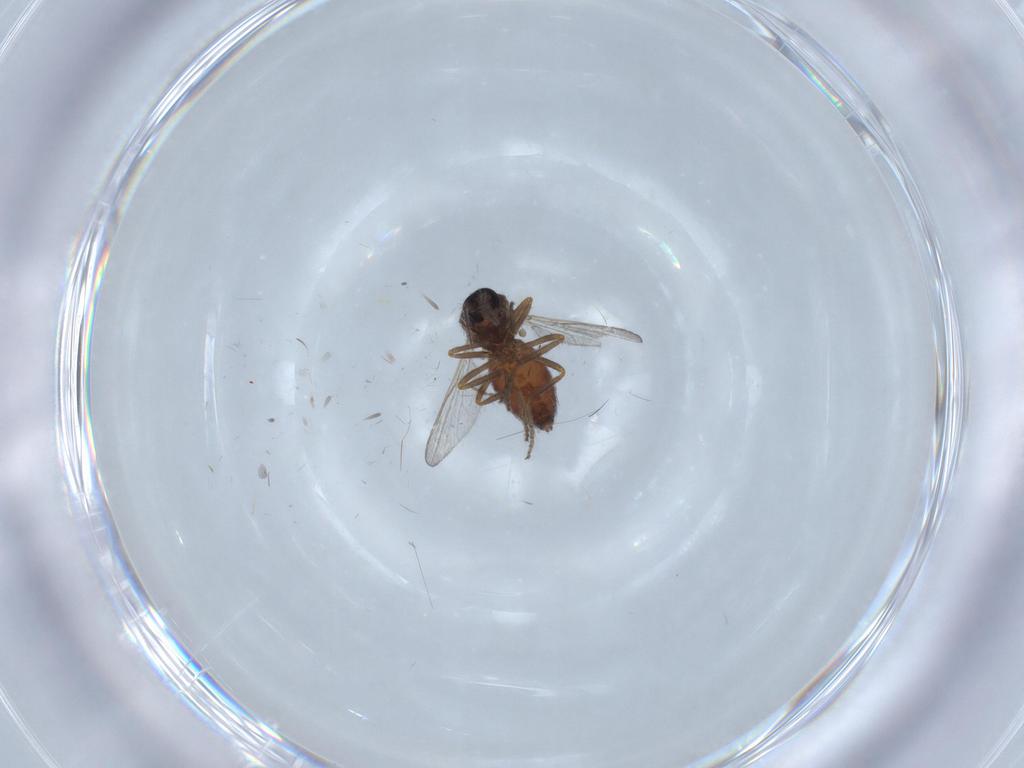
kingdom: Animalia
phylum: Arthropoda
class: Insecta
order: Diptera
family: Ceratopogonidae
